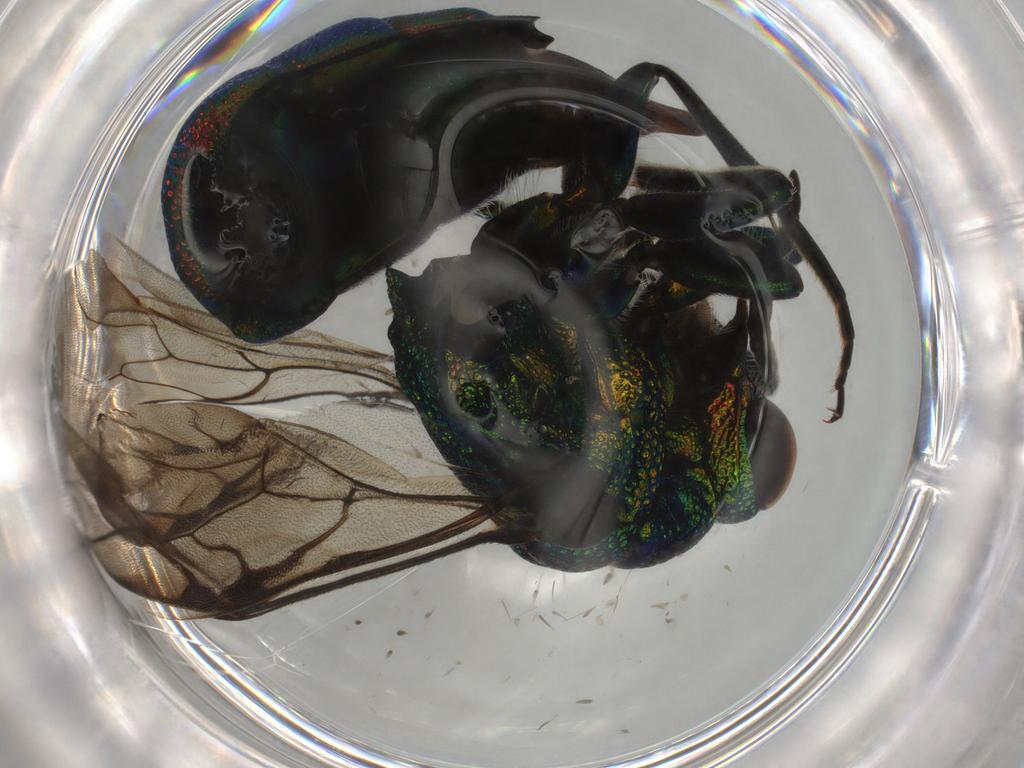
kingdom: Animalia
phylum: Arthropoda
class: Insecta
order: Hymenoptera
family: Chrysididae
